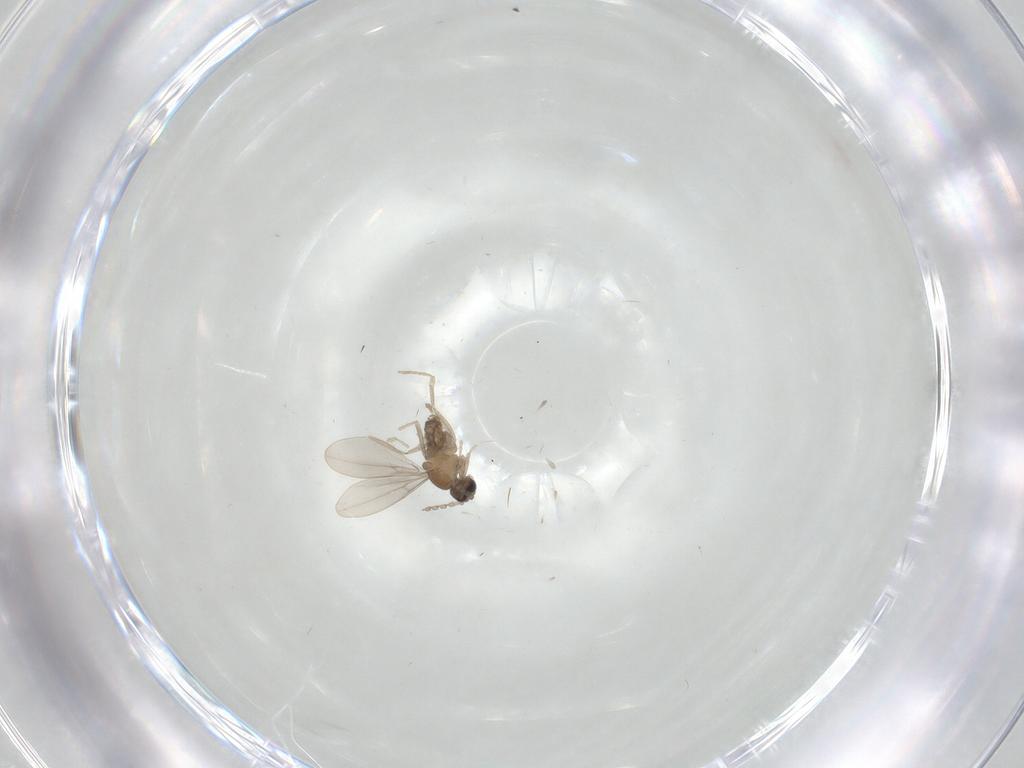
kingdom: Animalia
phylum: Arthropoda
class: Insecta
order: Diptera
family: Cecidomyiidae
